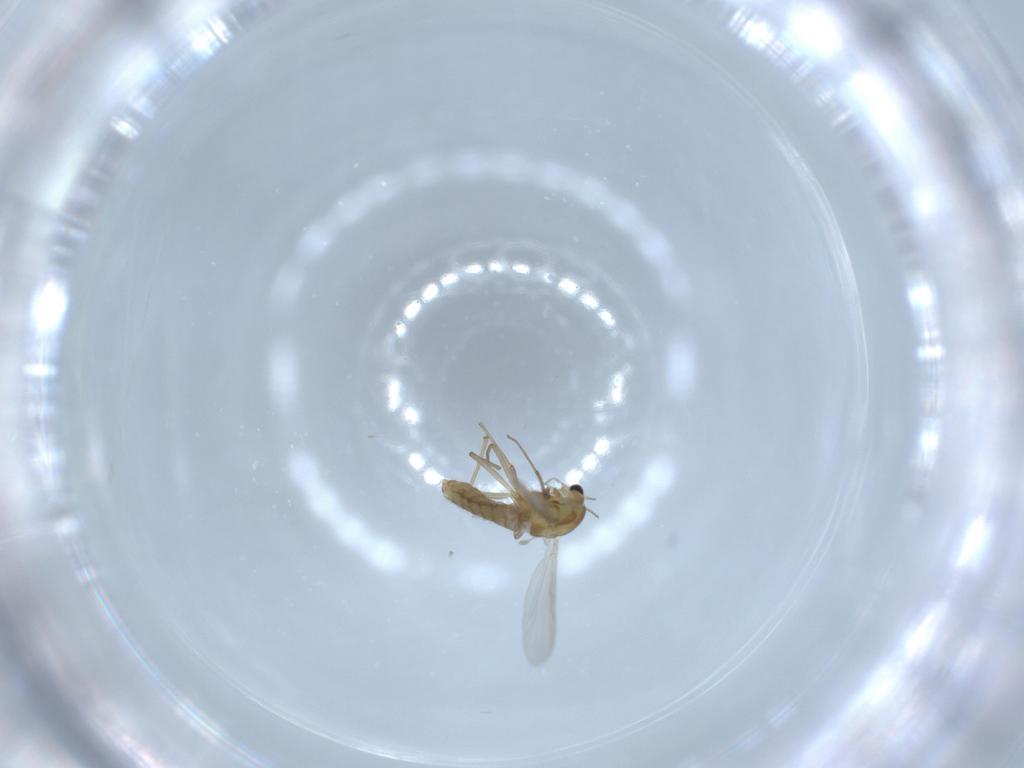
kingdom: Animalia
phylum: Arthropoda
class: Insecta
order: Diptera
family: Chironomidae
